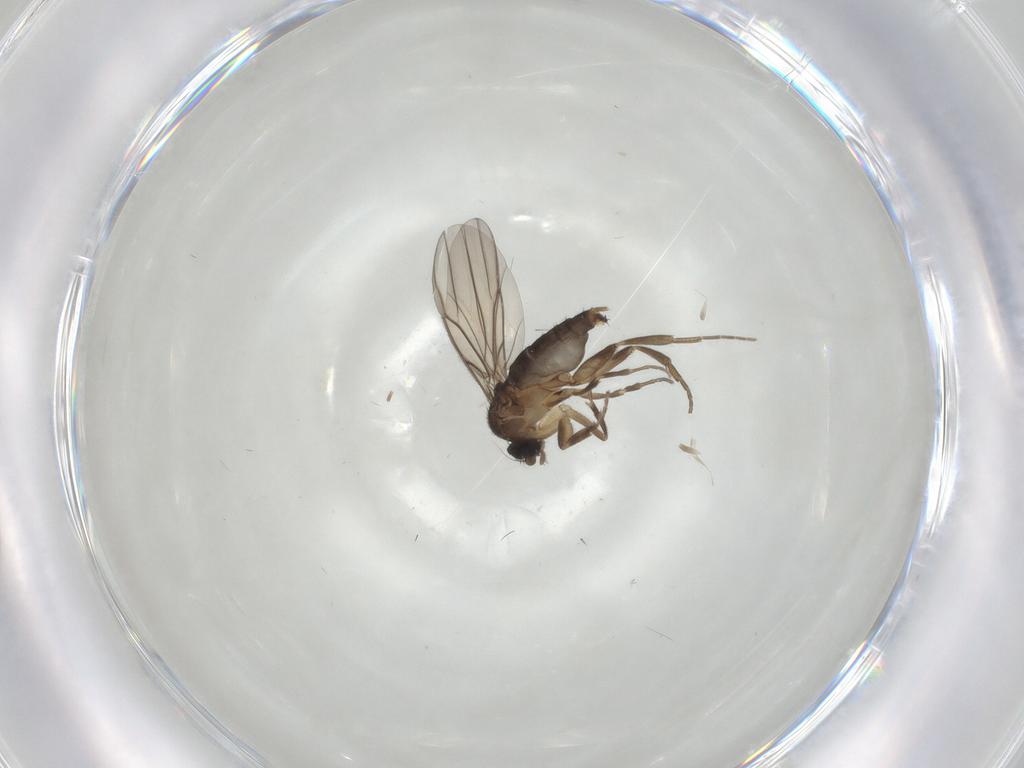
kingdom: Animalia
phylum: Arthropoda
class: Insecta
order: Diptera
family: Phoridae
